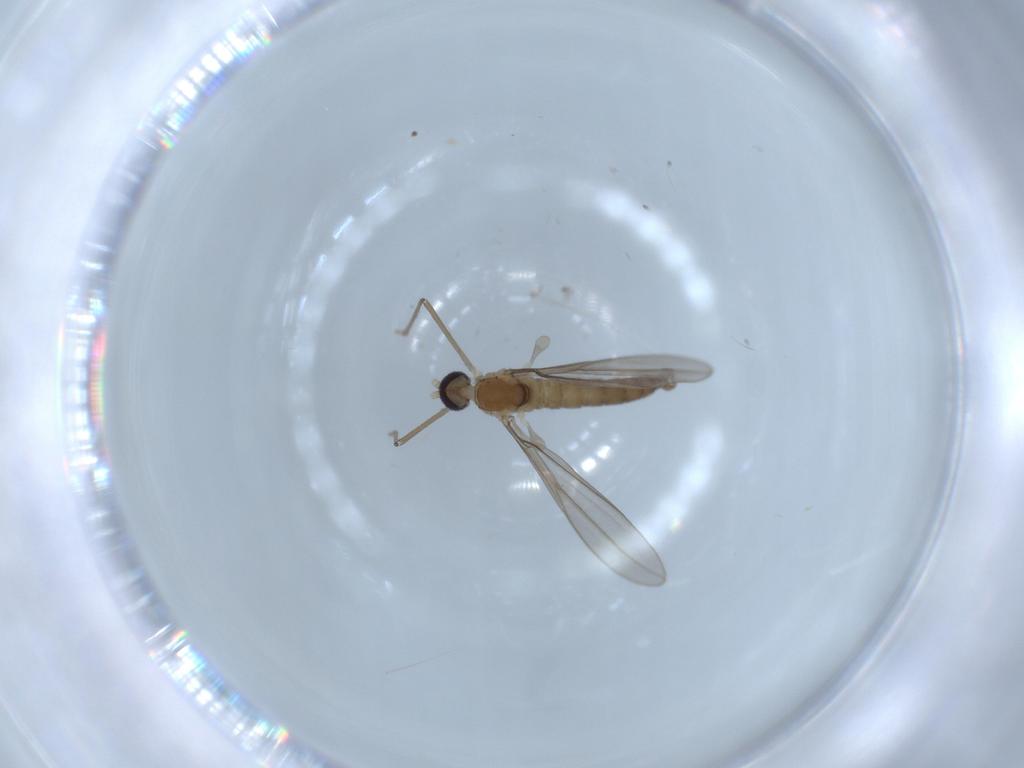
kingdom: Animalia
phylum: Arthropoda
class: Insecta
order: Diptera
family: Cecidomyiidae
